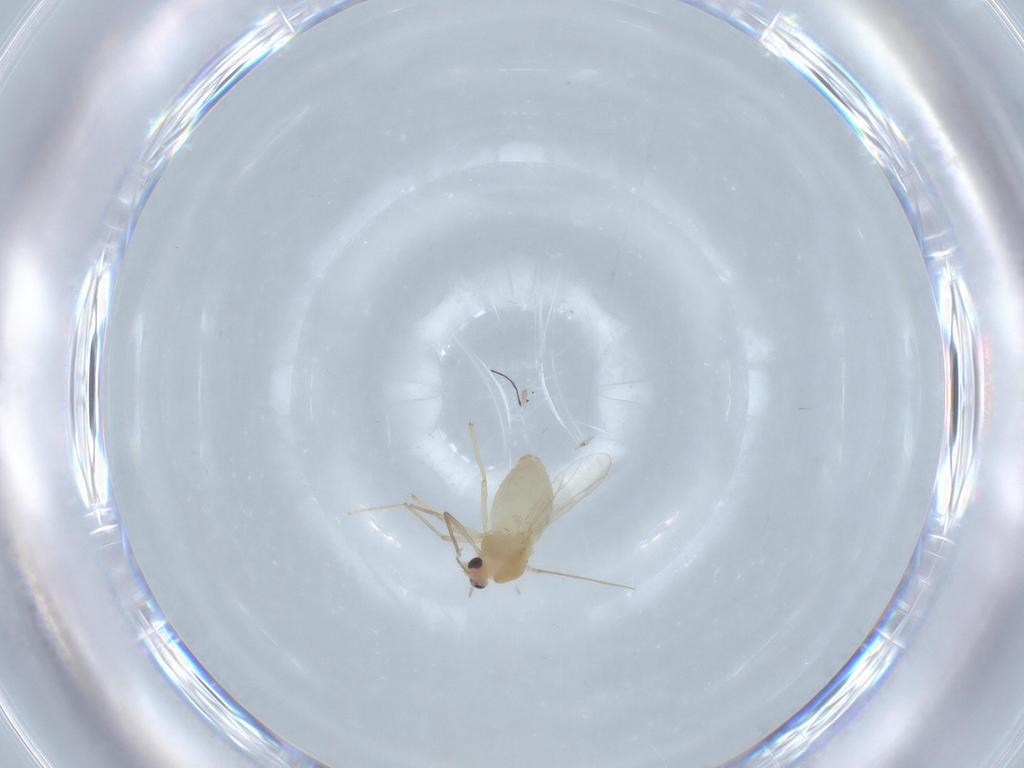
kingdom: Animalia
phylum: Arthropoda
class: Insecta
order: Diptera
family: Chironomidae
